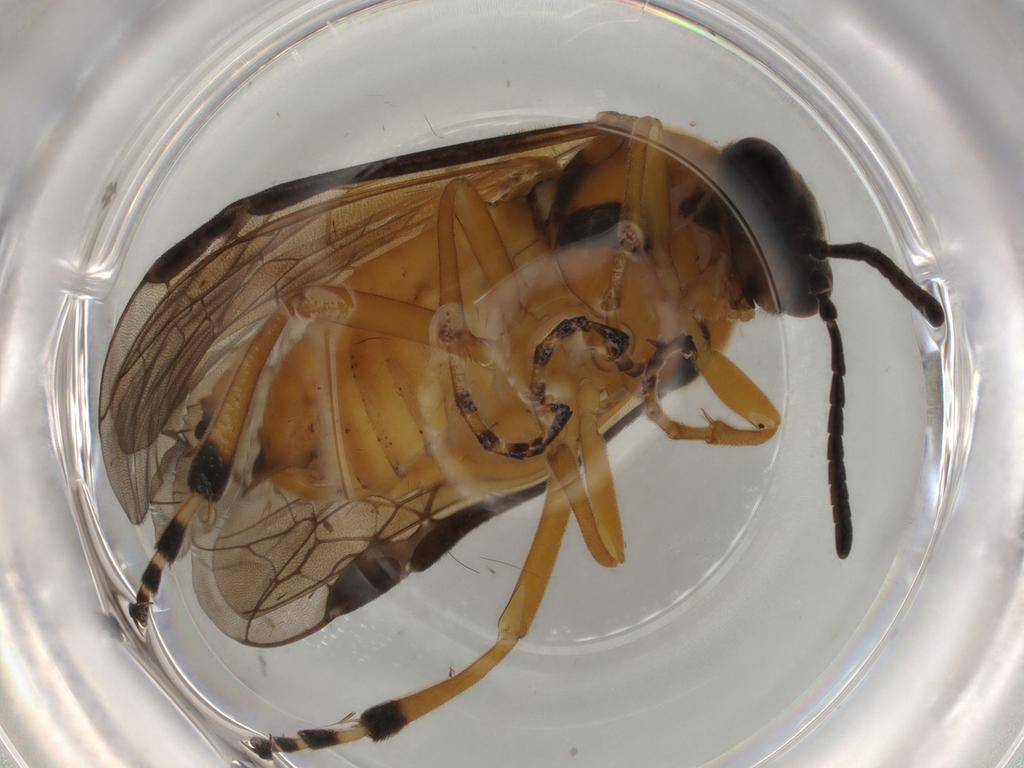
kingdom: Animalia
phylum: Arthropoda
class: Insecta
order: Hymenoptera
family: Tenthredinidae
